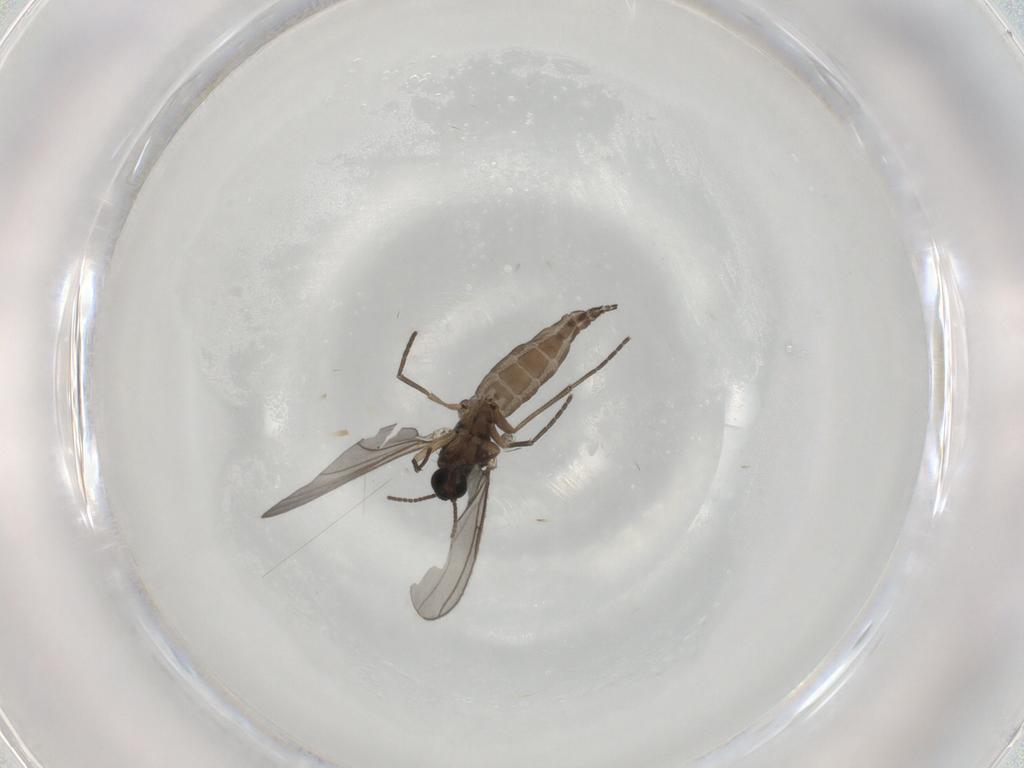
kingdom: Animalia
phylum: Arthropoda
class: Insecta
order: Diptera
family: Sciaridae
